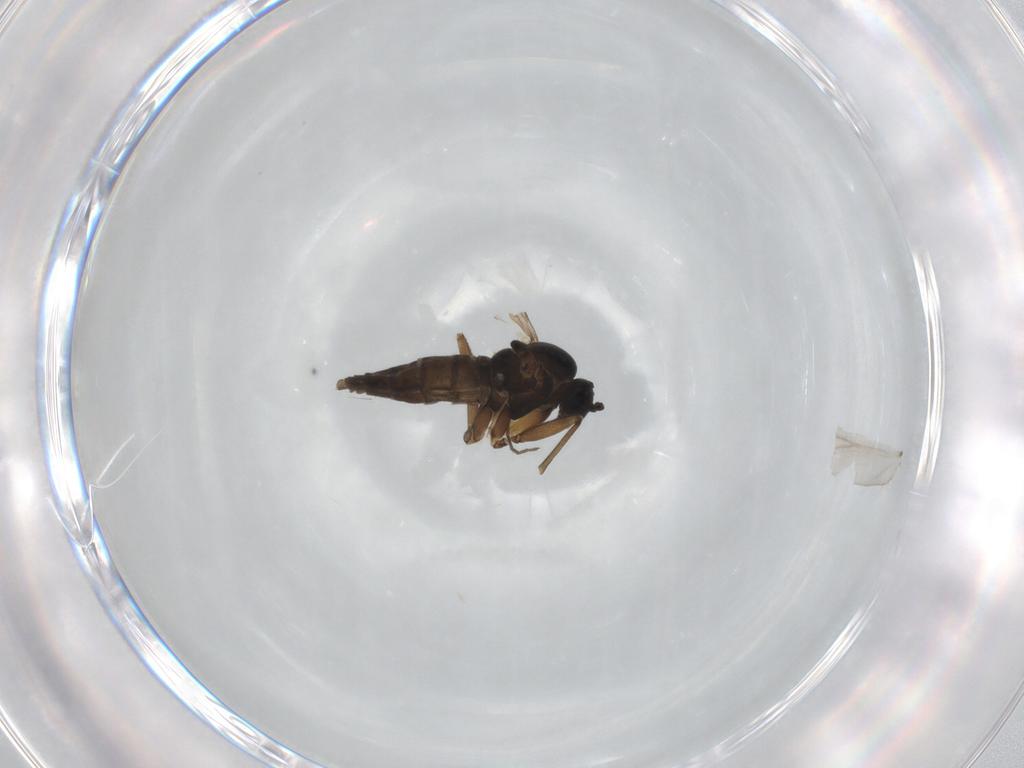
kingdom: Animalia
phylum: Arthropoda
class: Insecta
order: Diptera
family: Sciaridae
